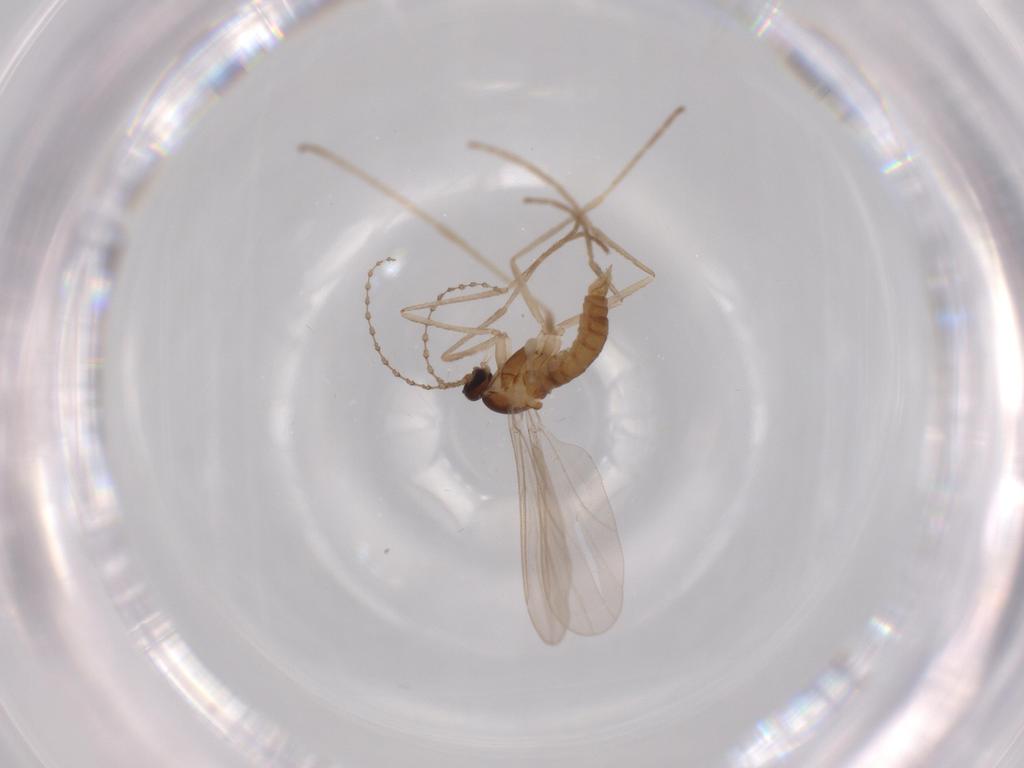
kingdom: Animalia
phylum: Arthropoda
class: Insecta
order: Diptera
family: Cecidomyiidae
